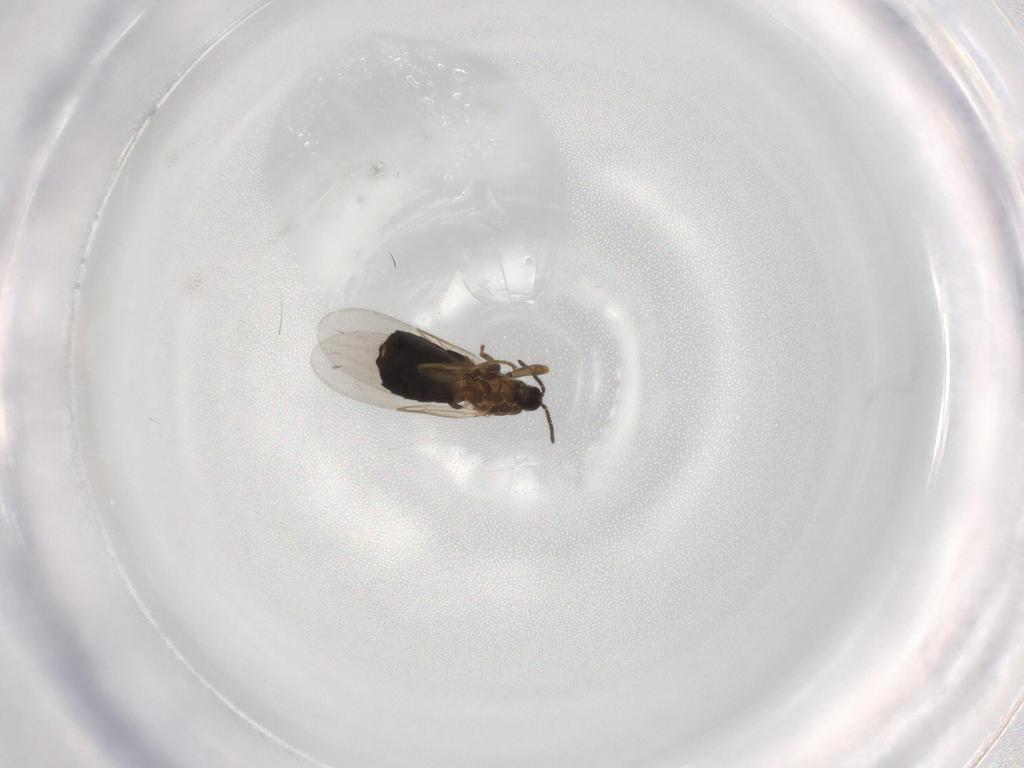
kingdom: Animalia
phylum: Arthropoda
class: Insecta
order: Diptera
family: Scatopsidae
